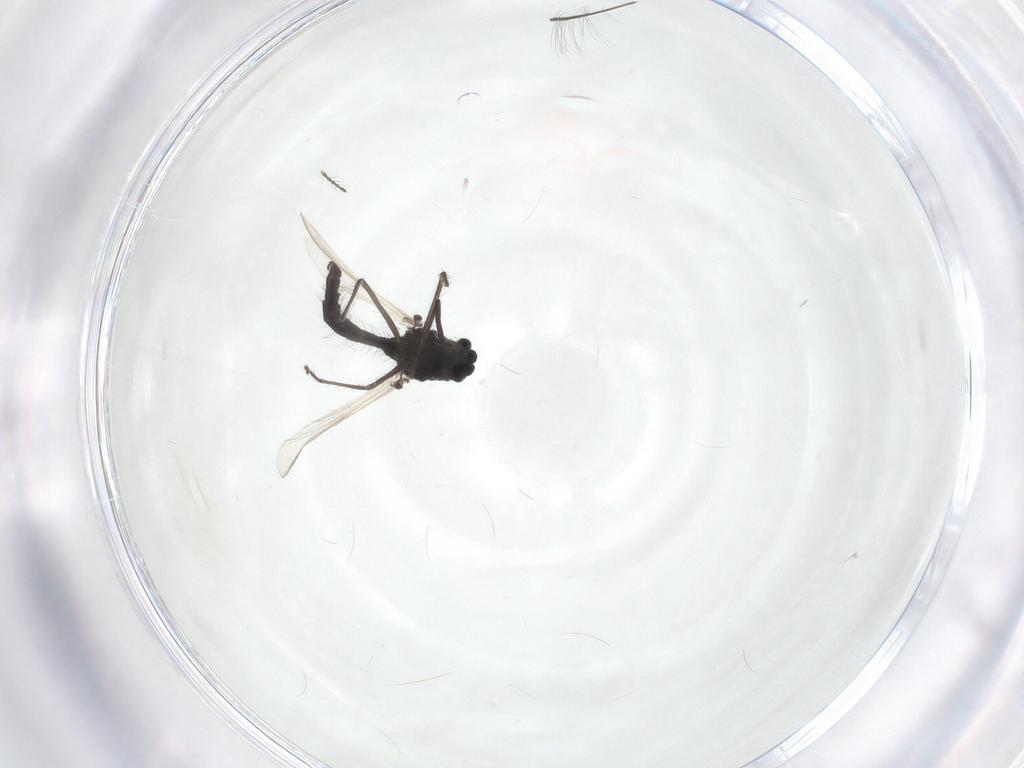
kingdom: Animalia
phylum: Arthropoda
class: Insecta
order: Diptera
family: Chironomidae
